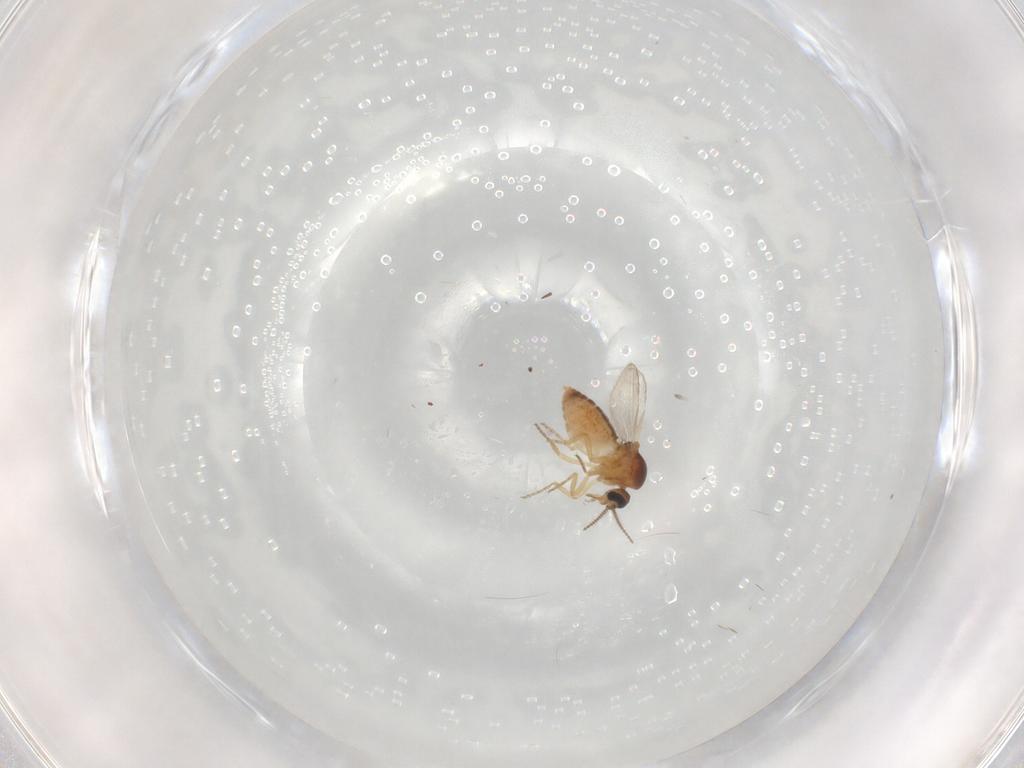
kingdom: Animalia
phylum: Arthropoda
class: Insecta
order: Diptera
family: Ceratopogonidae
